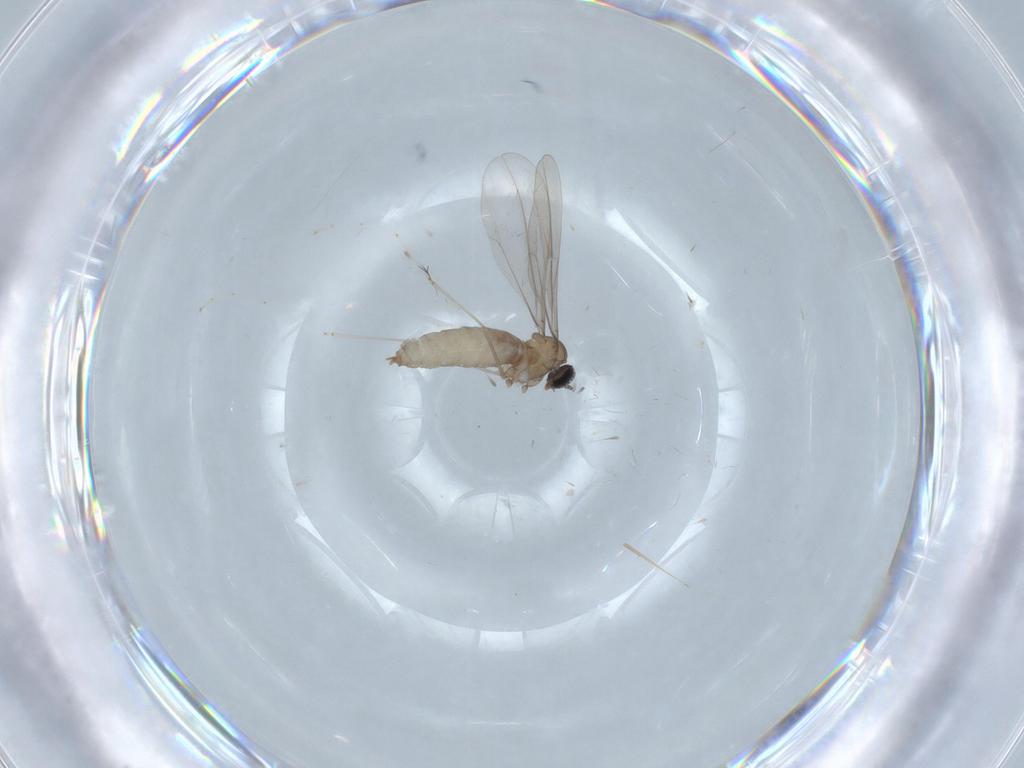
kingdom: Animalia
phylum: Arthropoda
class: Insecta
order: Diptera
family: Cecidomyiidae
